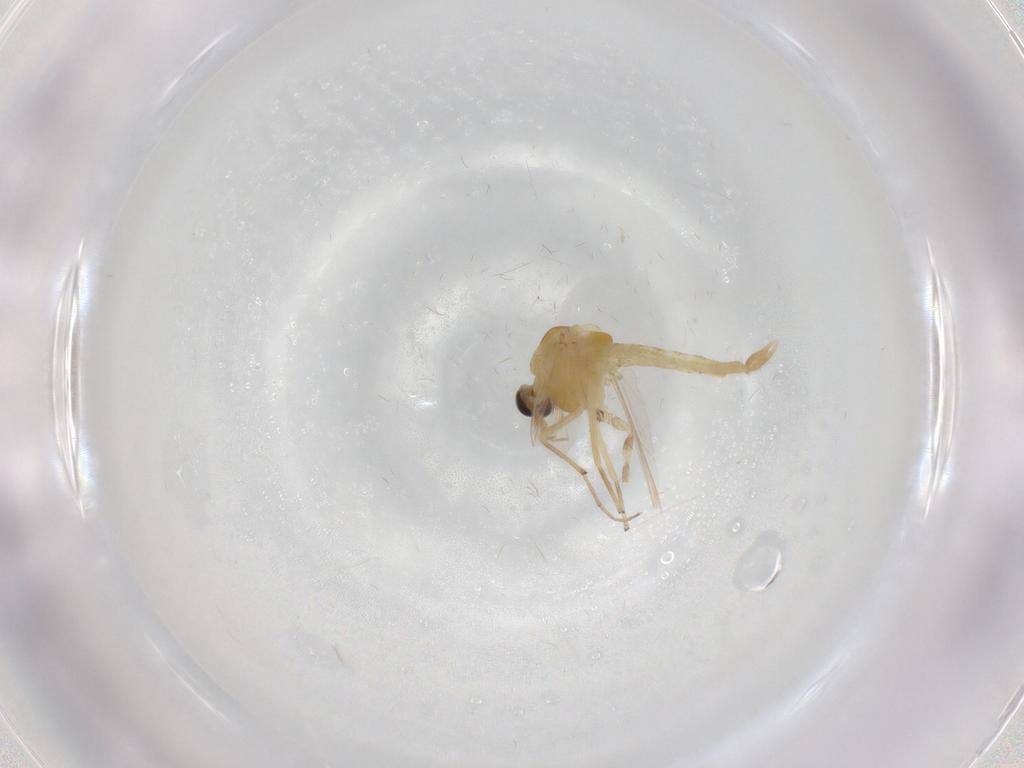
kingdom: Animalia
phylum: Arthropoda
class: Insecta
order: Diptera
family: Chironomidae
